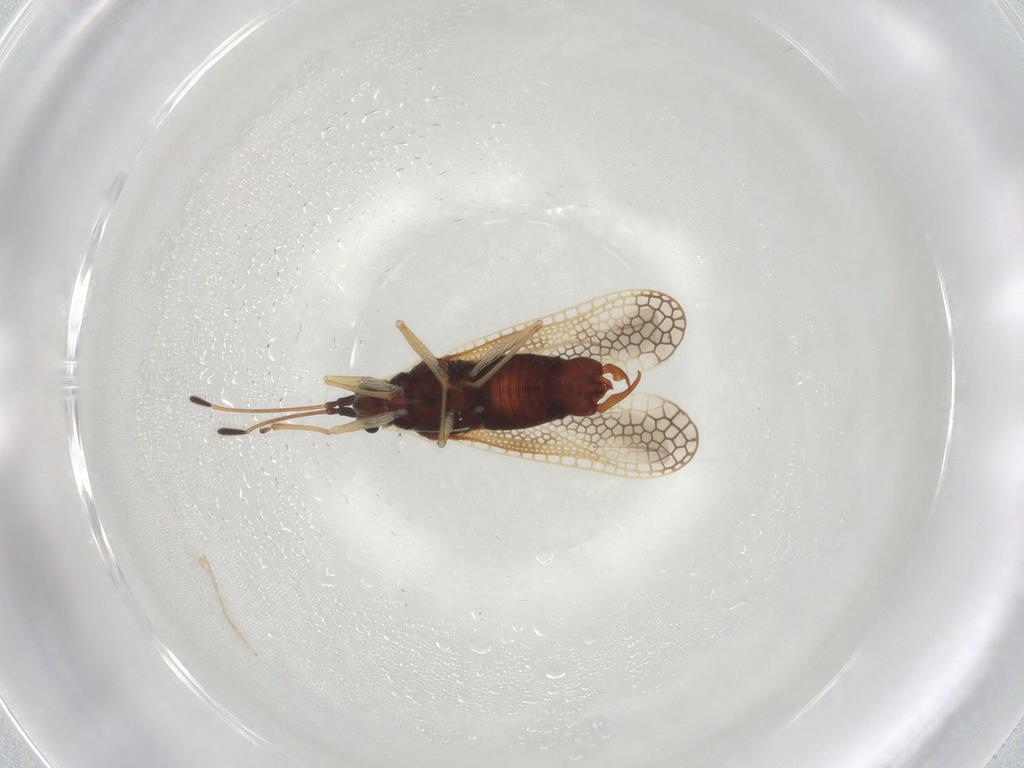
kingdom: Animalia
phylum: Arthropoda
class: Insecta
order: Hemiptera
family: Tingidae
